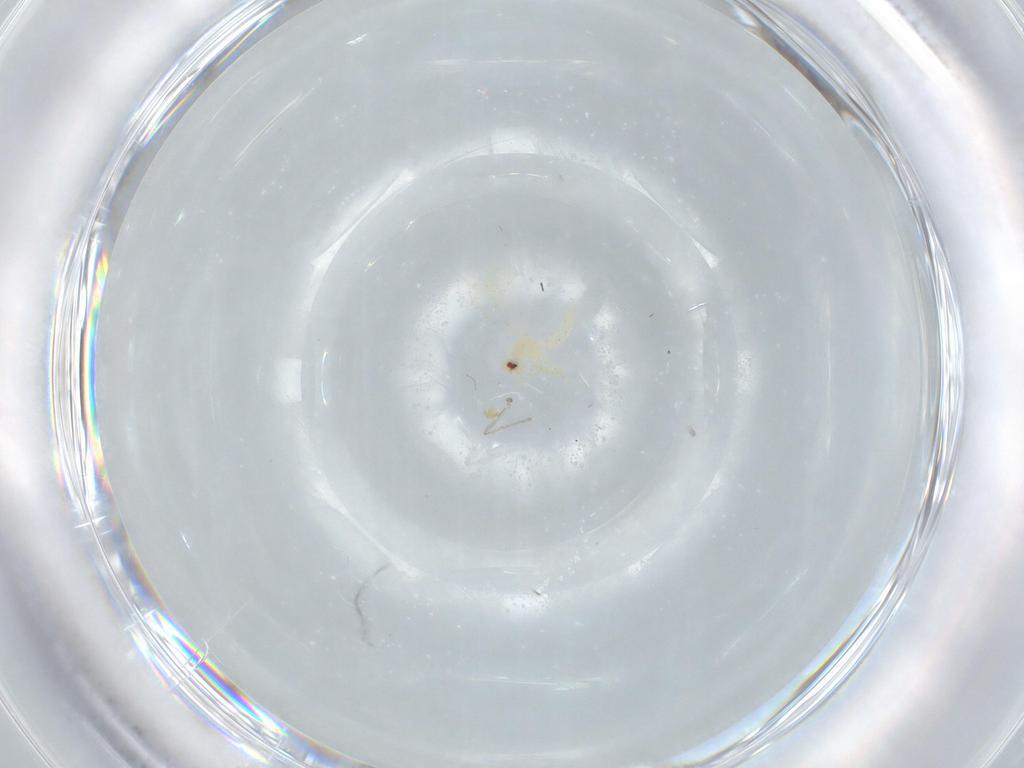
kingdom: Animalia
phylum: Arthropoda
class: Insecta
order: Hemiptera
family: Aleyrodidae
